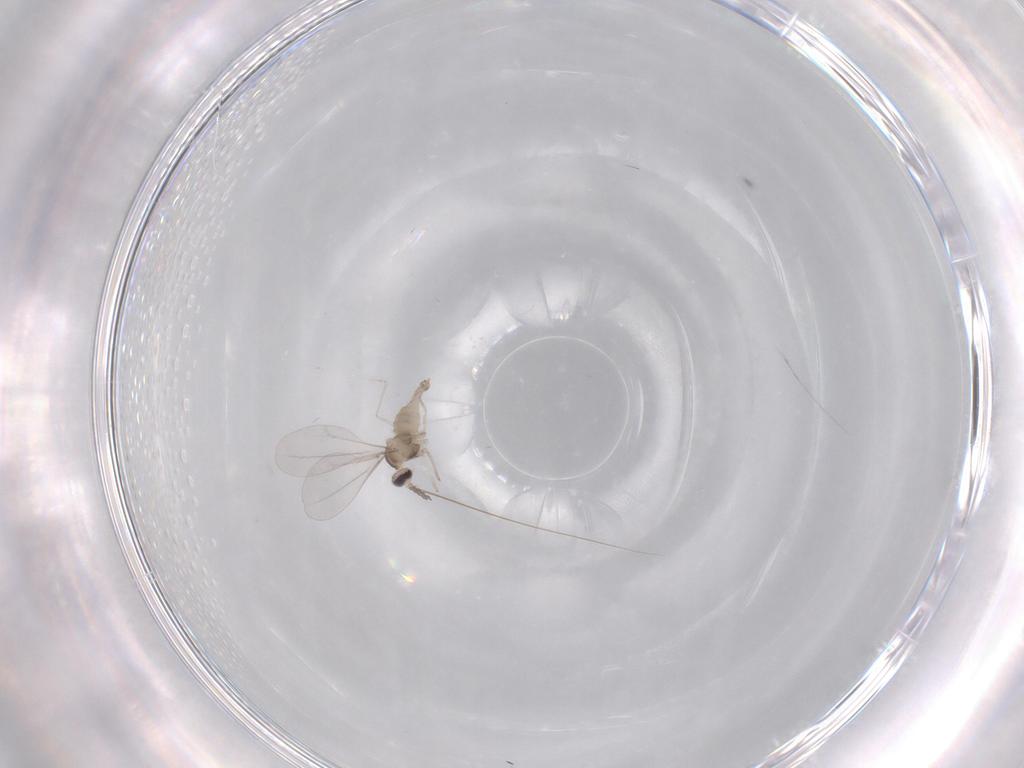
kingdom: Animalia
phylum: Arthropoda
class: Insecta
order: Diptera
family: Cecidomyiidae
